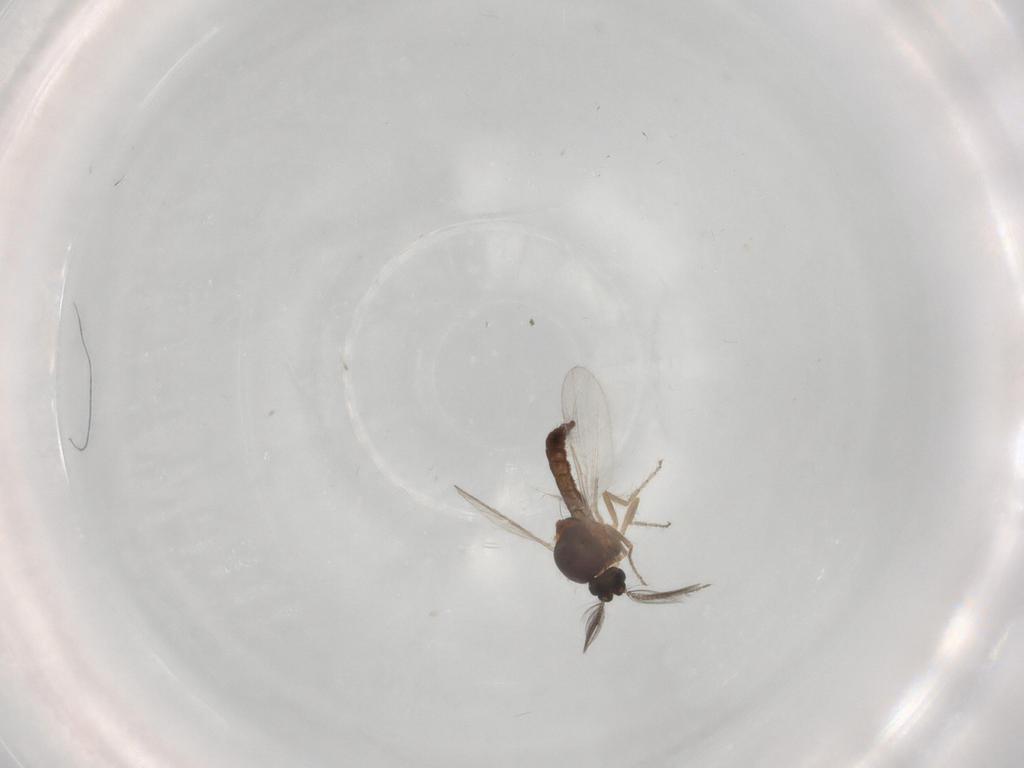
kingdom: Animalia
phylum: Arthropoda
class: Insecta
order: Diptera
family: Ceratopogonidae
